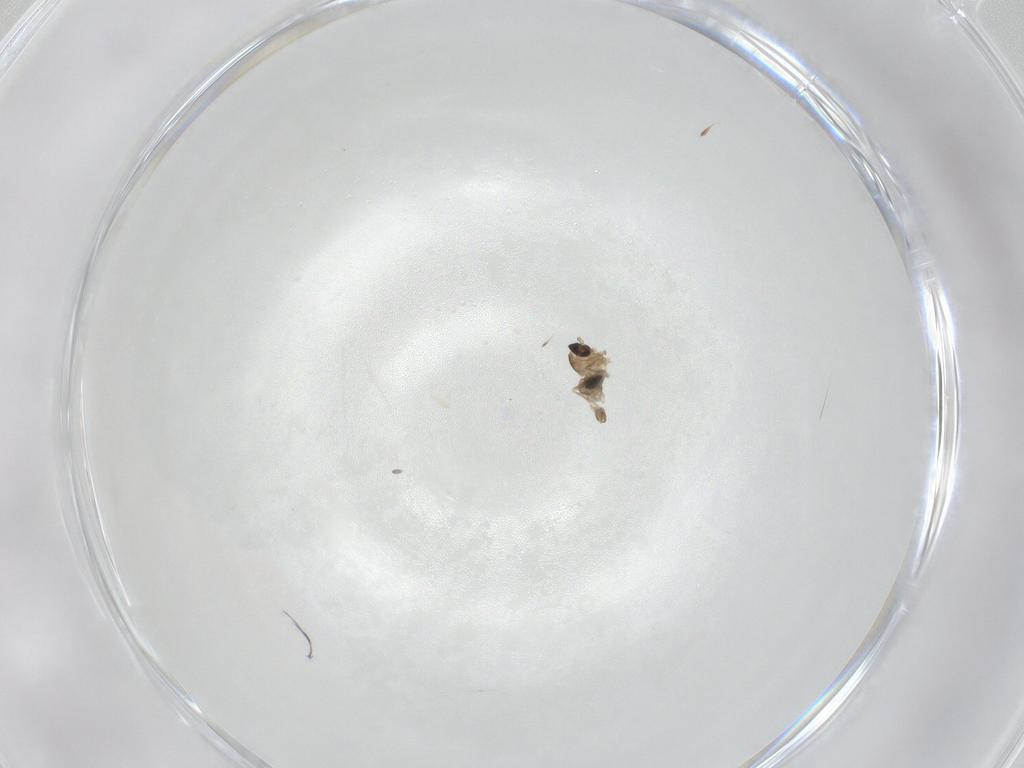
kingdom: Animalia
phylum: Arthropoda
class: Insecta
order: Diptera
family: Cecidomyiidae
